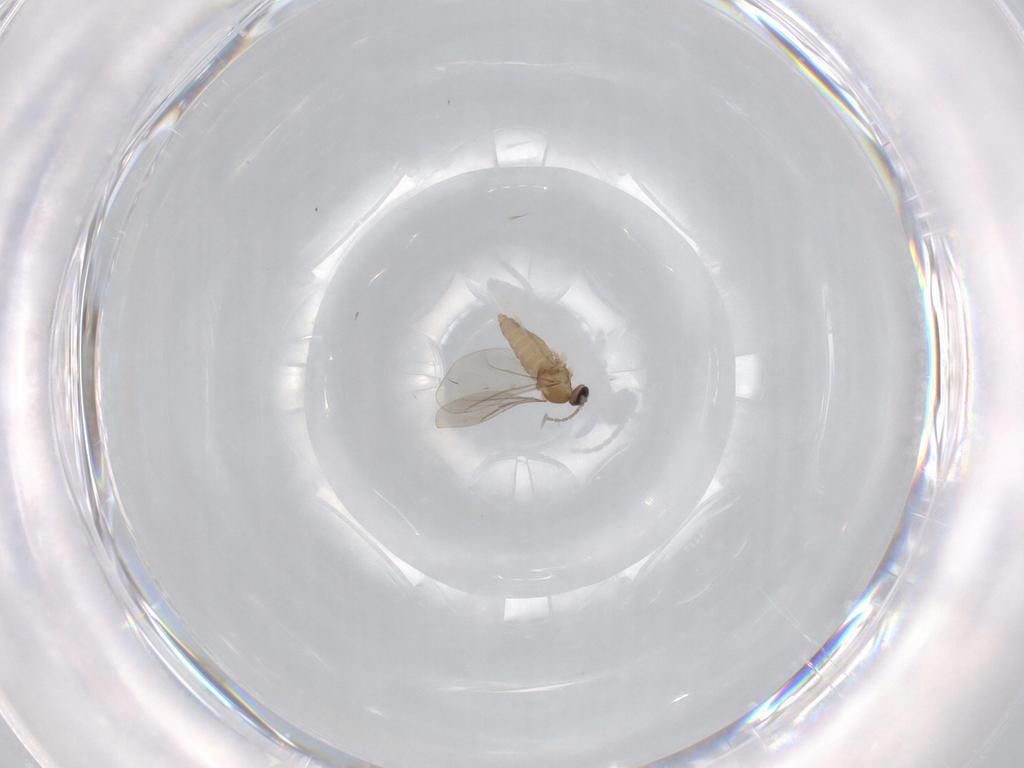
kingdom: Animalia
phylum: Arthropoda
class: Insecta
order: Diptera
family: Cecidomyiidae
